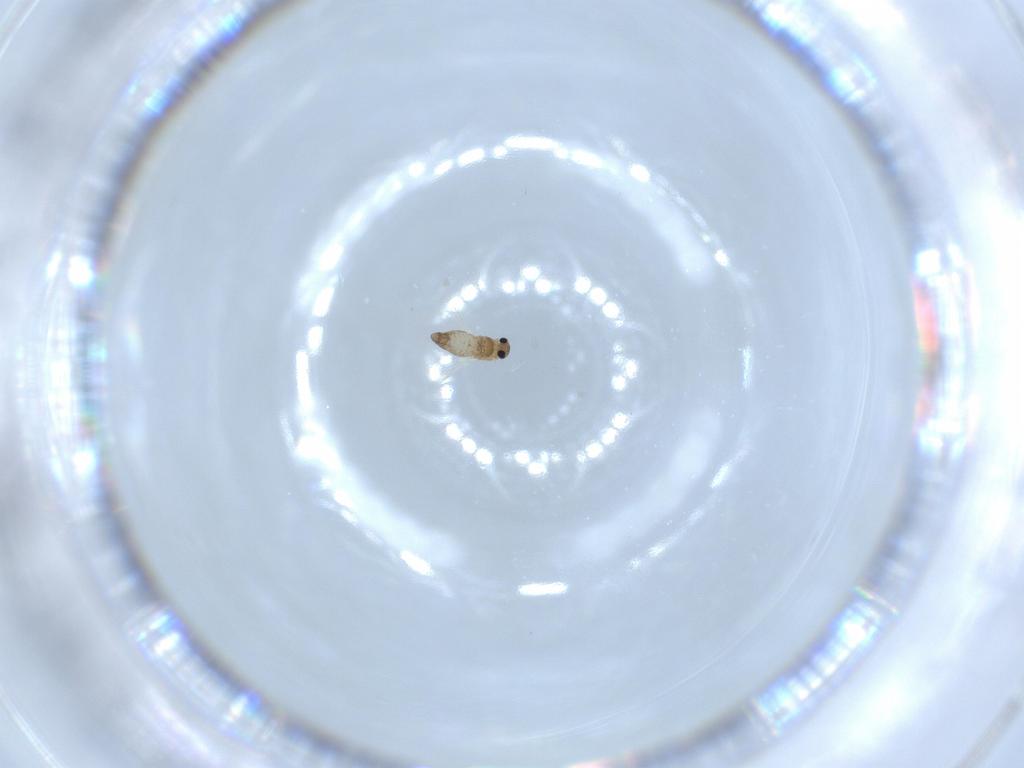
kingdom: Animalia
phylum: Arthropoda
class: Insecta
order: Diptera
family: Chironomidae
